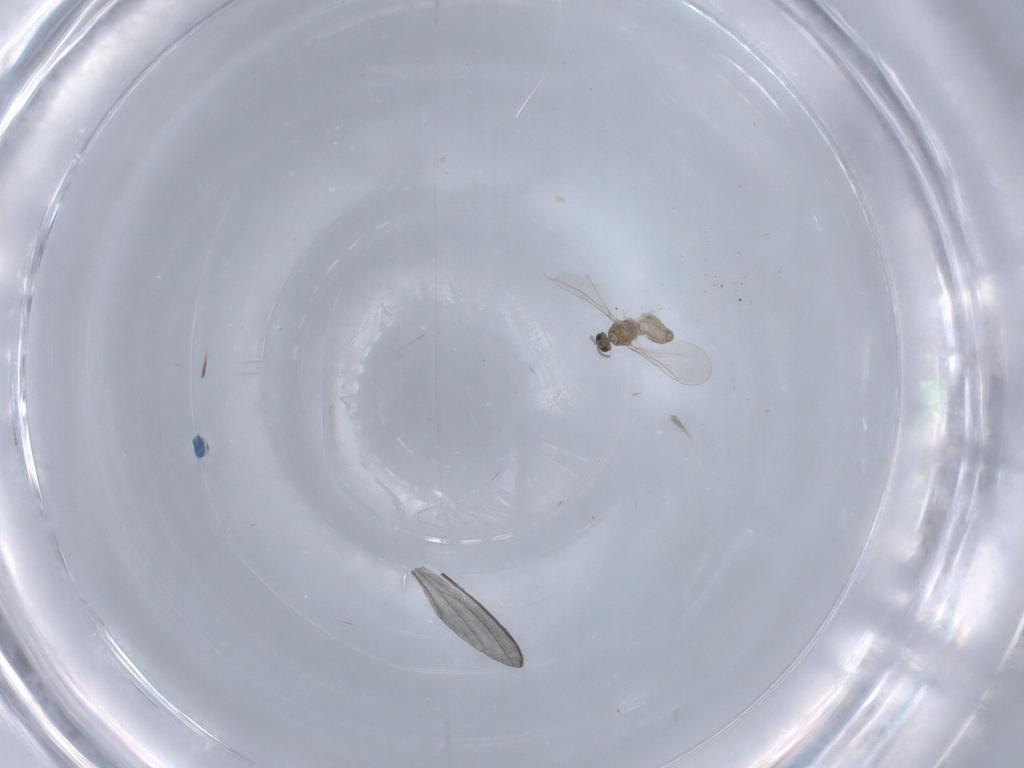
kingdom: Animalia
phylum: Arthropoda
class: Insecta
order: Diptera
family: Cecidomyiidae
